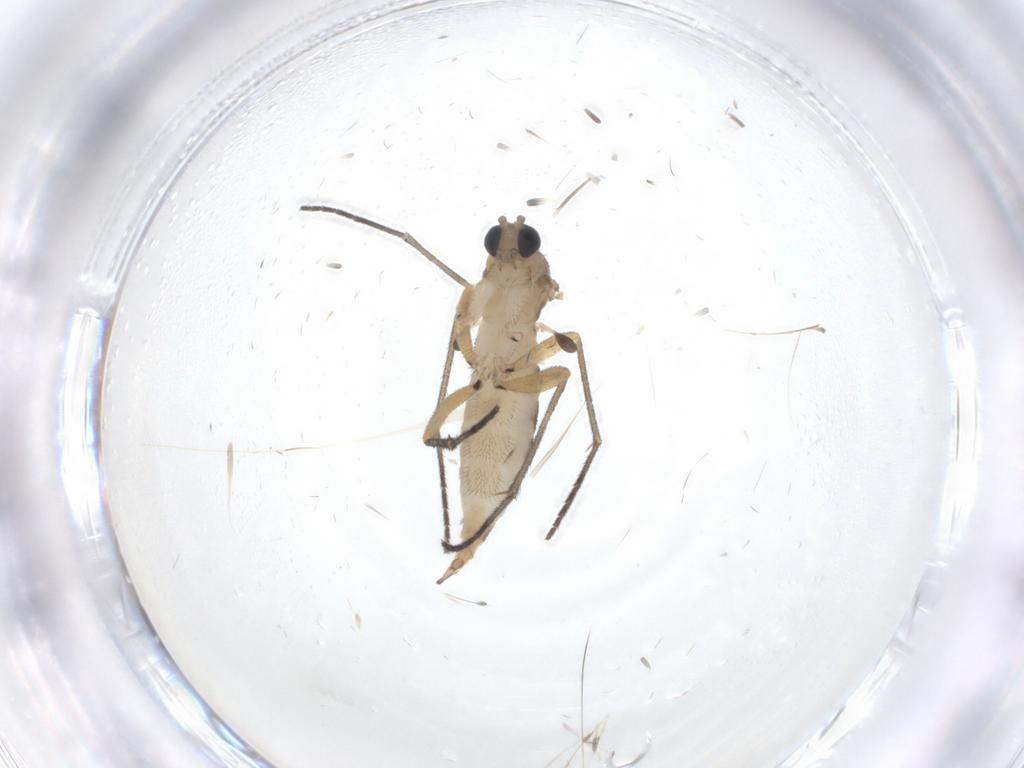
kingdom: Animalia
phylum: Arthropoda
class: Insecta
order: Diptera
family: Sciaridae
